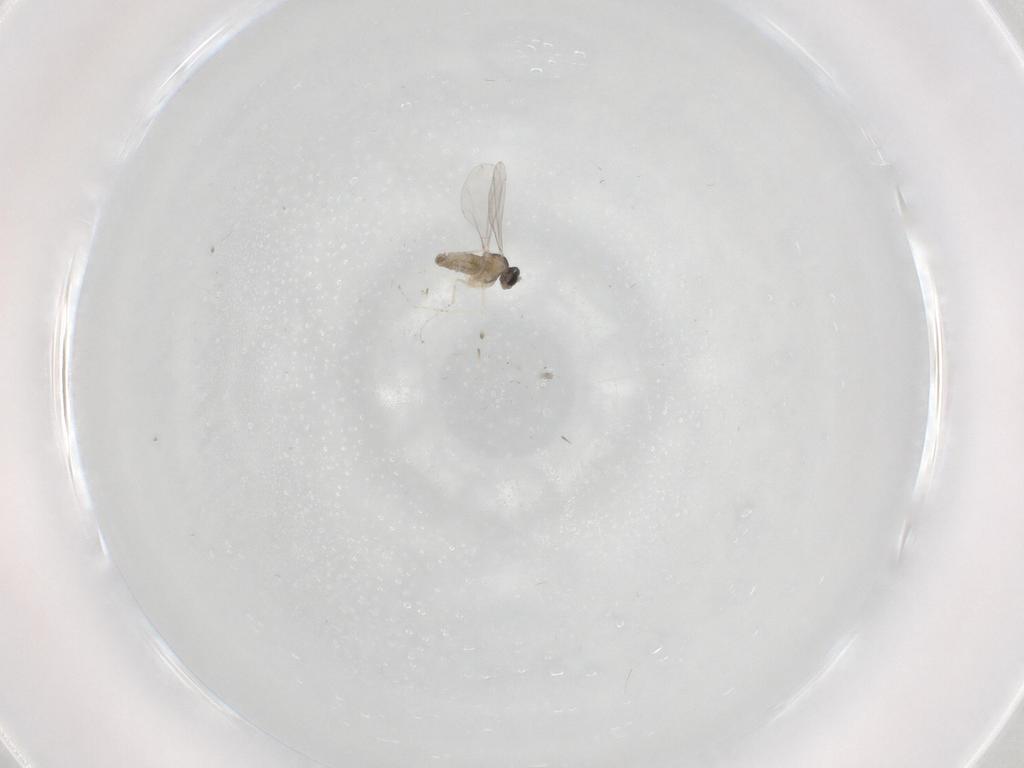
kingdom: Animalia
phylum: Arthropoda
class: Insecta
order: Diptera
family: Cecidomyiidae
